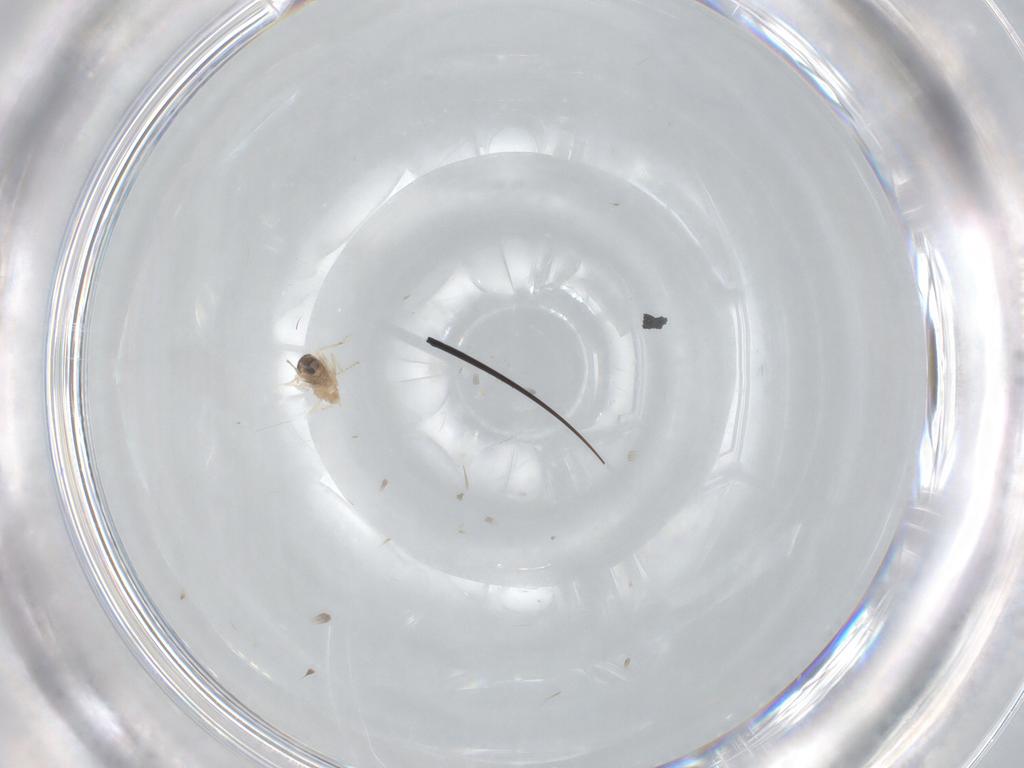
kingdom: Animalia
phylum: Arthropoda
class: Insecta
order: Diptera
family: Cecidomyiidae
